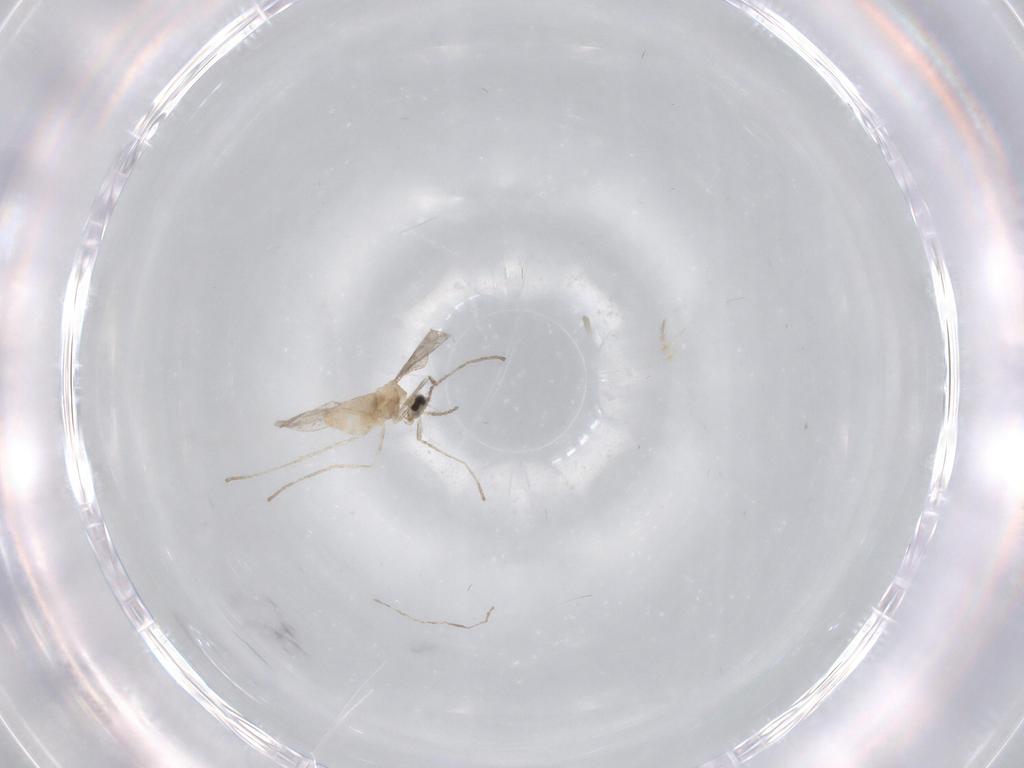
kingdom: Animalia
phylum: Arthropoda
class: Insecta
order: Diptera
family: Cecidomyiidae
